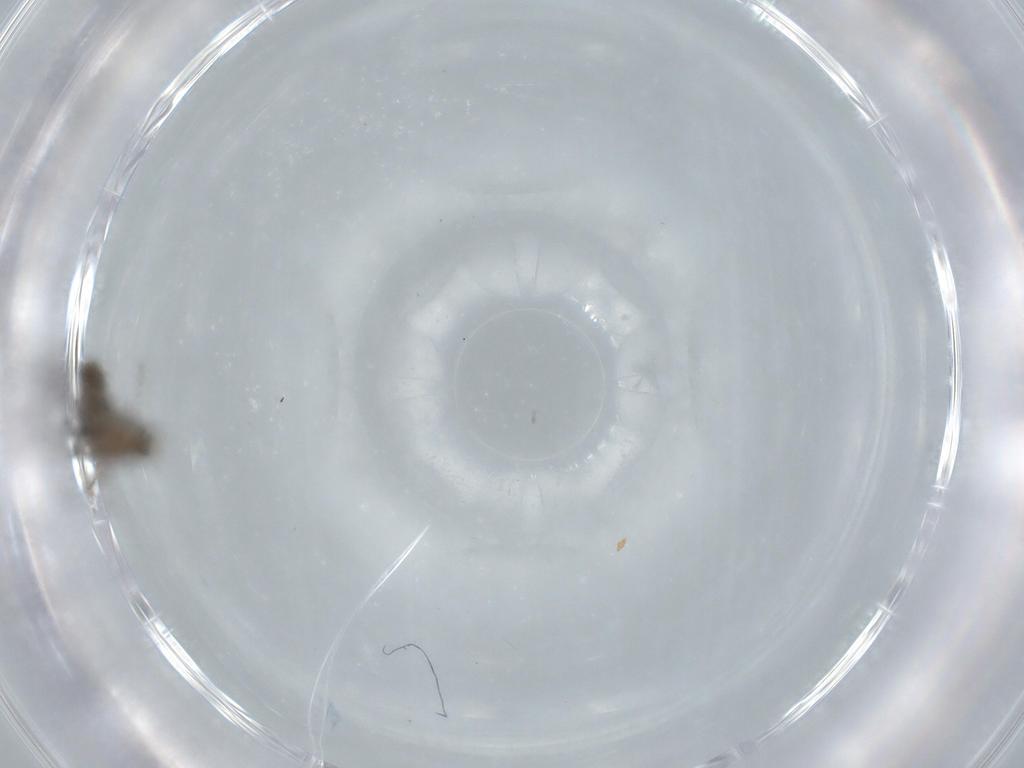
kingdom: Animalia
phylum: Arthropoda
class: Insecta
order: Diptera
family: Chironomidae
